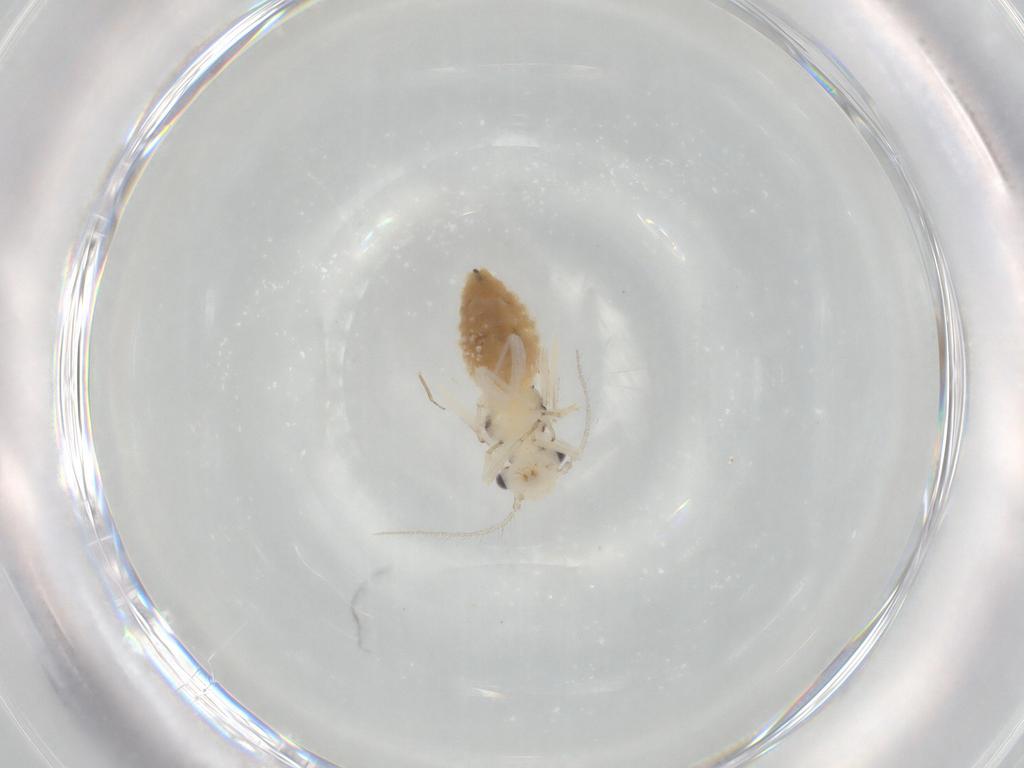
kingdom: Animalia
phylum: Arthropoda
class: Insecta
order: Psocodea
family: Caeciliusidae
